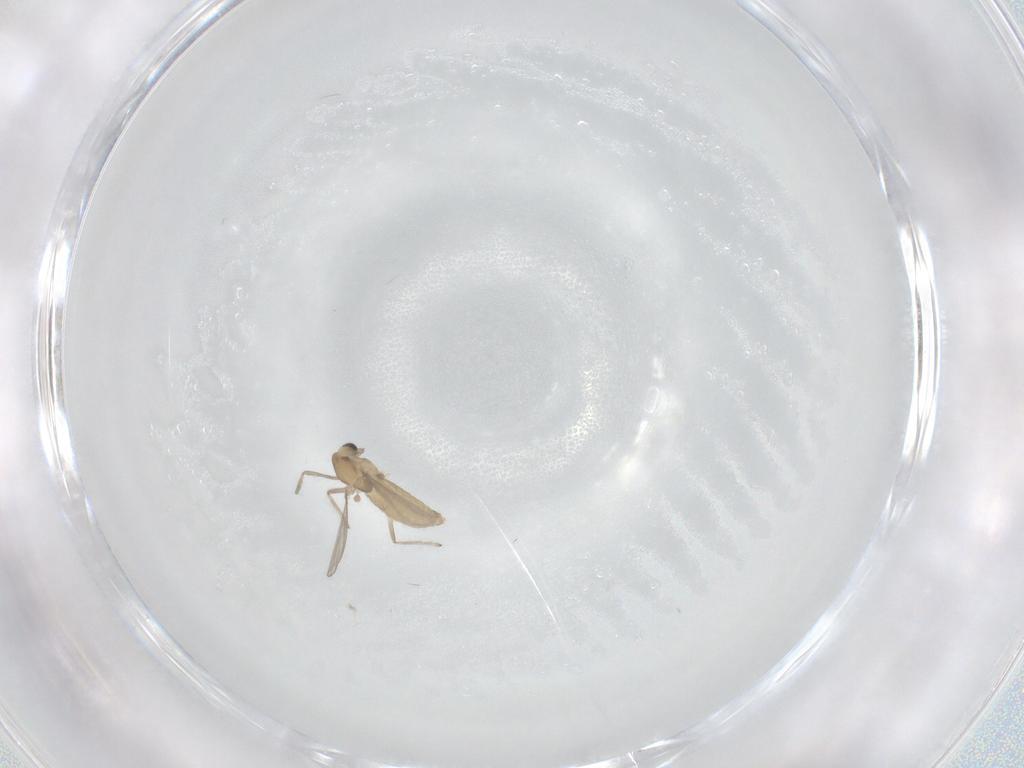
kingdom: Animalia
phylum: Arthropoda
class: Insecta
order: Diptera
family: Chironomidae
